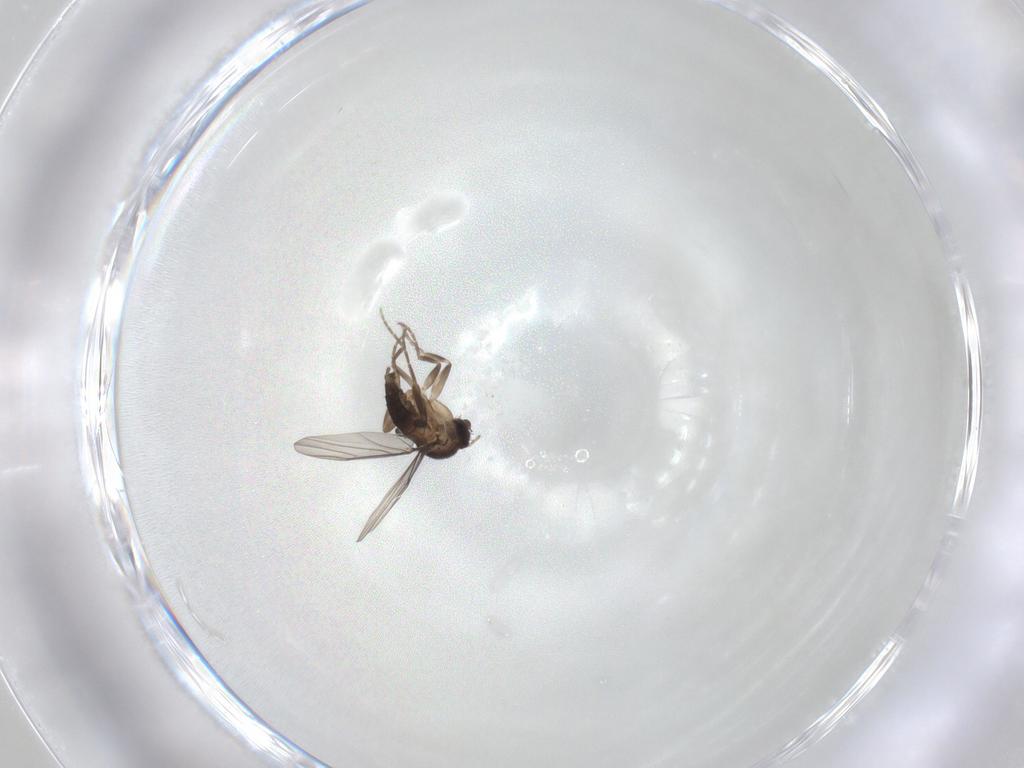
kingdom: Animalia
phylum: Arthropoda
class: Insecta
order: Diptera
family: Phoridae
